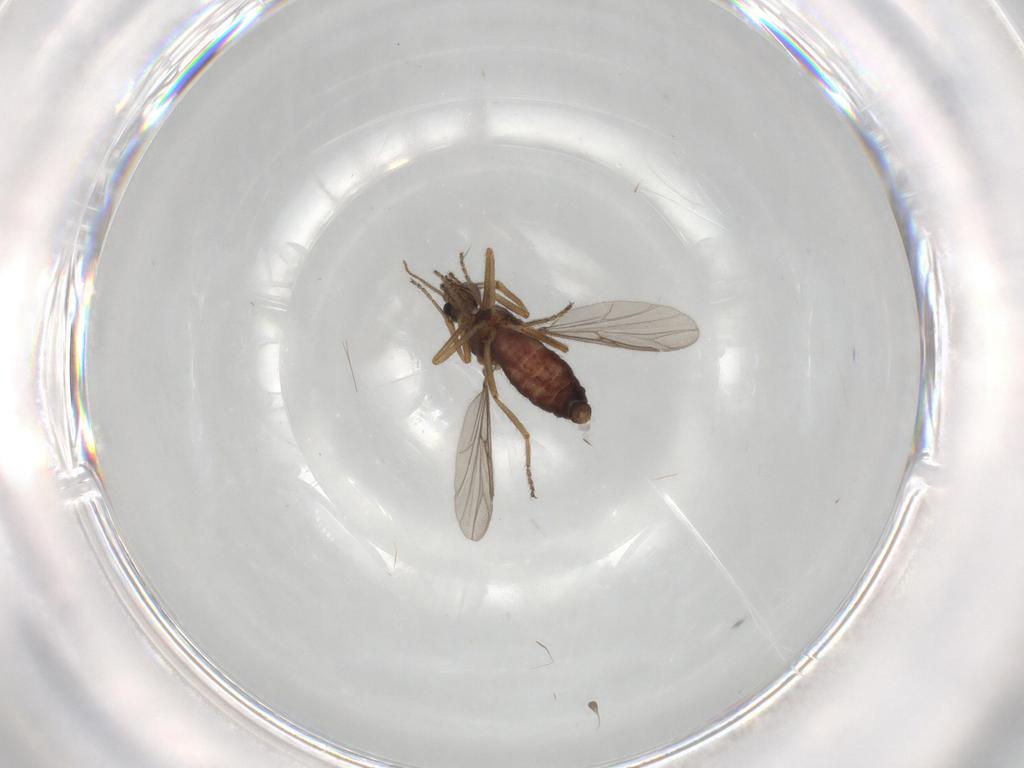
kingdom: Animalia
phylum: Arthropoda
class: Insecta
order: Diptera
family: Ceratopogonidae
